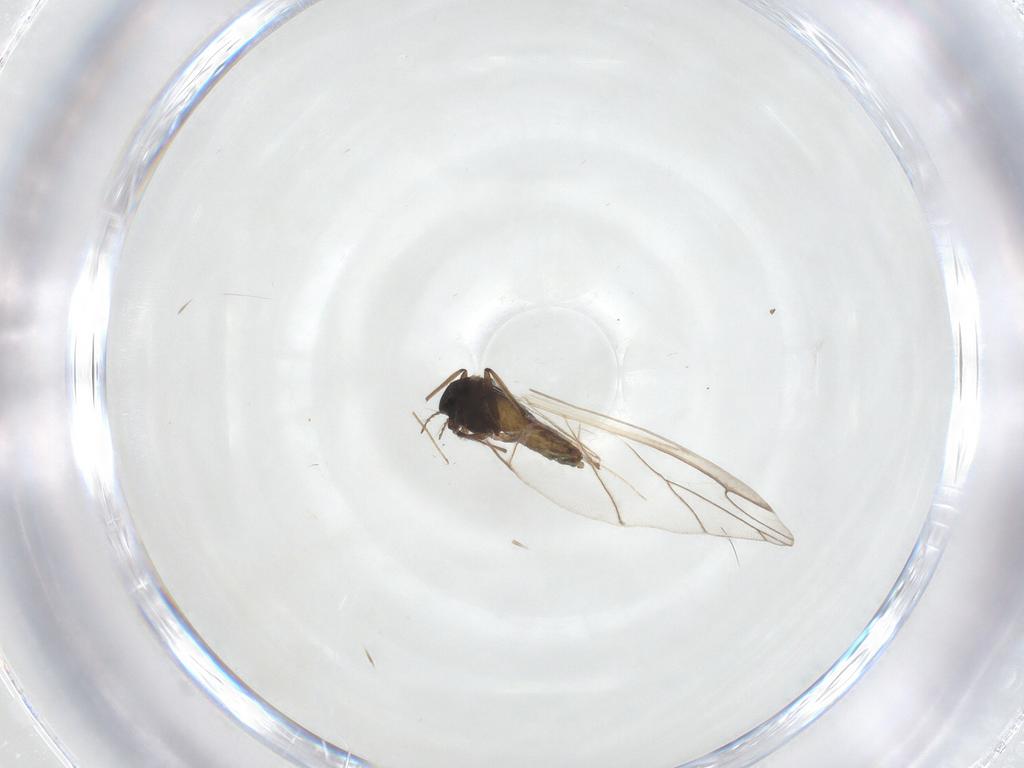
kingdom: Animalia
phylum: Arthropoda
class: Insecta
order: Diptera
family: Chironomidae
